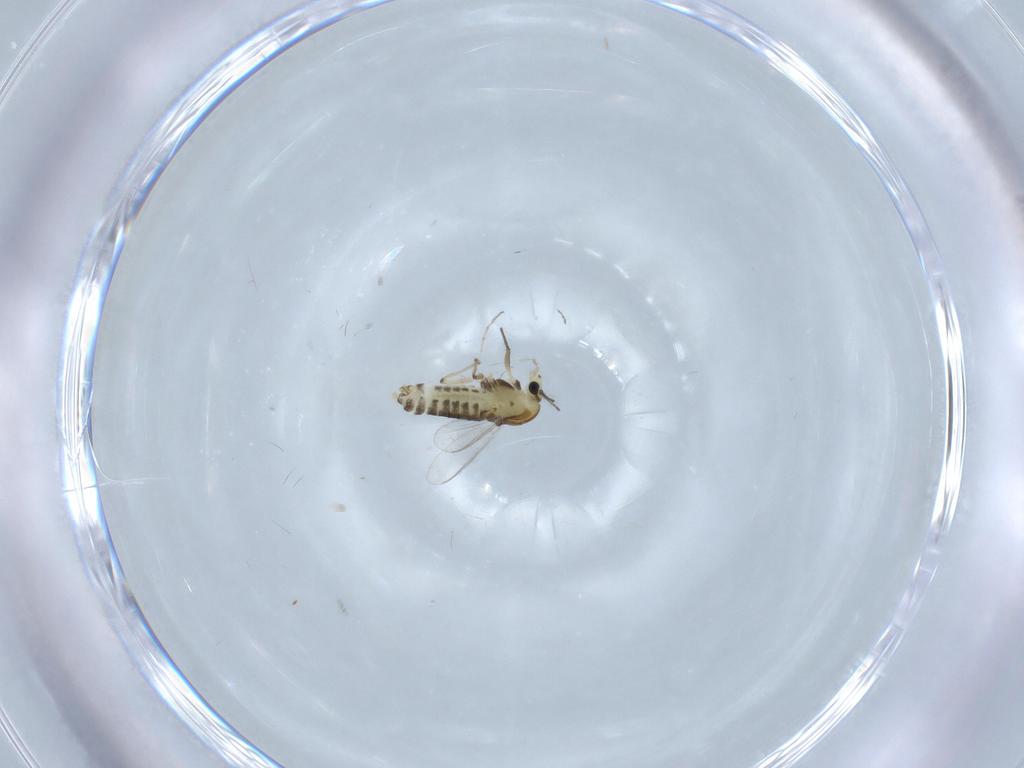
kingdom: Animalia
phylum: Arthropoda
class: Insecta
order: Diptera
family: Chironomidae
